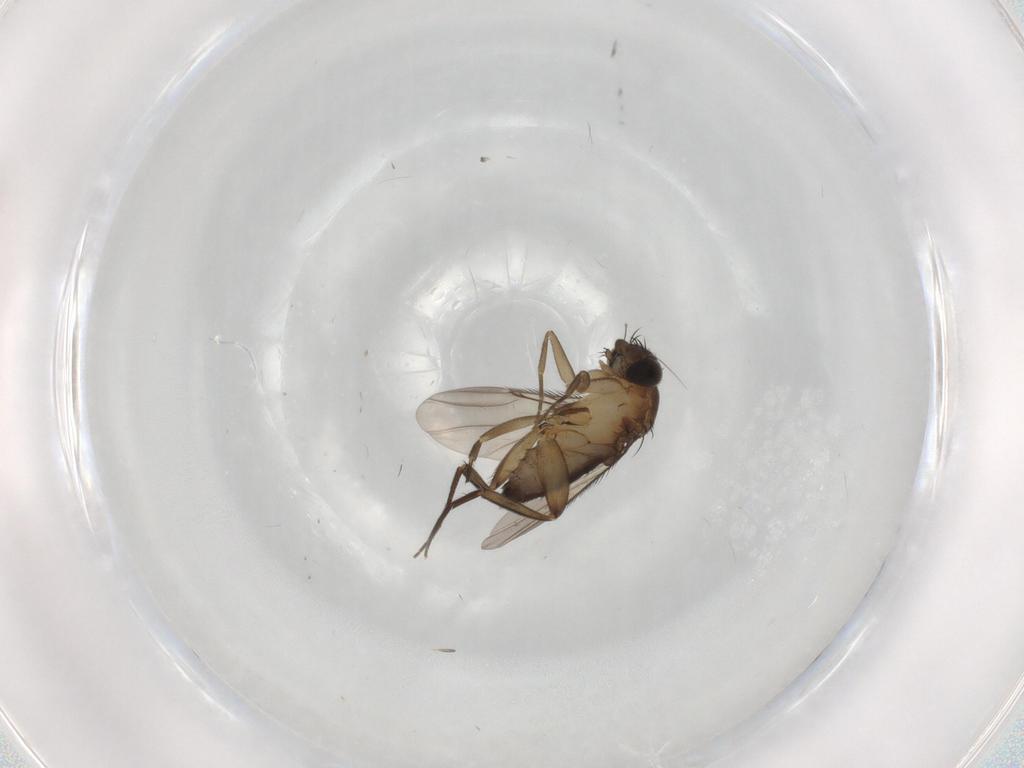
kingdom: Animalia
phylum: Arthropoda
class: Insecta
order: Diptera
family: Phoridae
